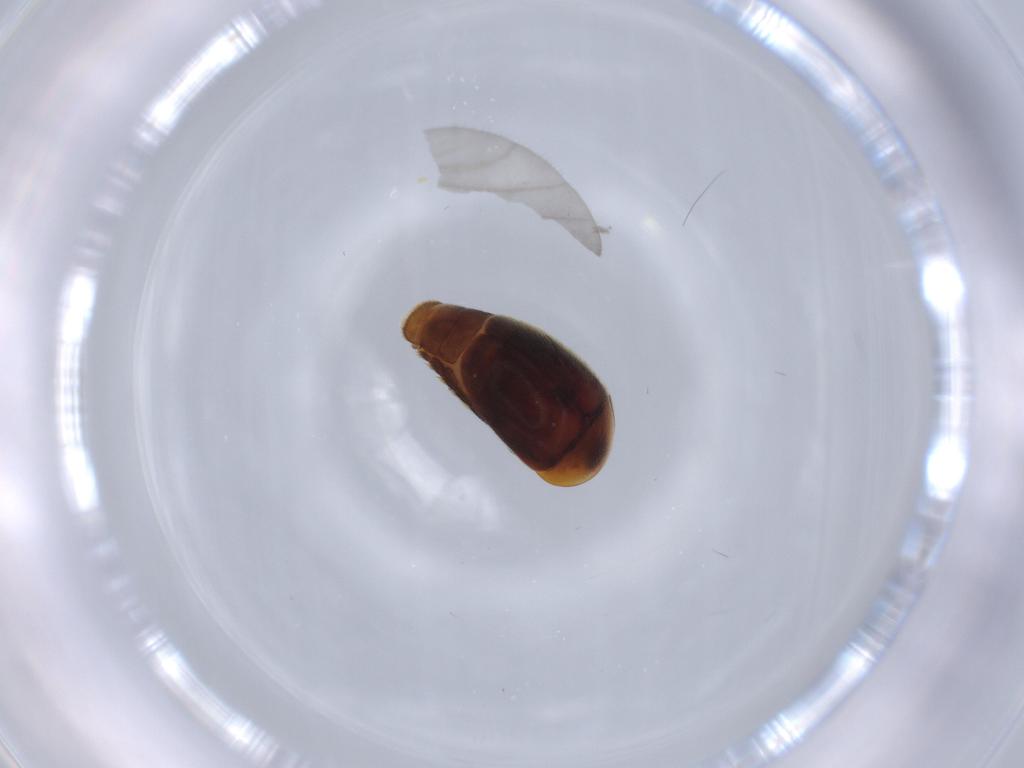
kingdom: Animalia
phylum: Arthropoda
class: Insecta
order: Coleoptera
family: Corylophidae
